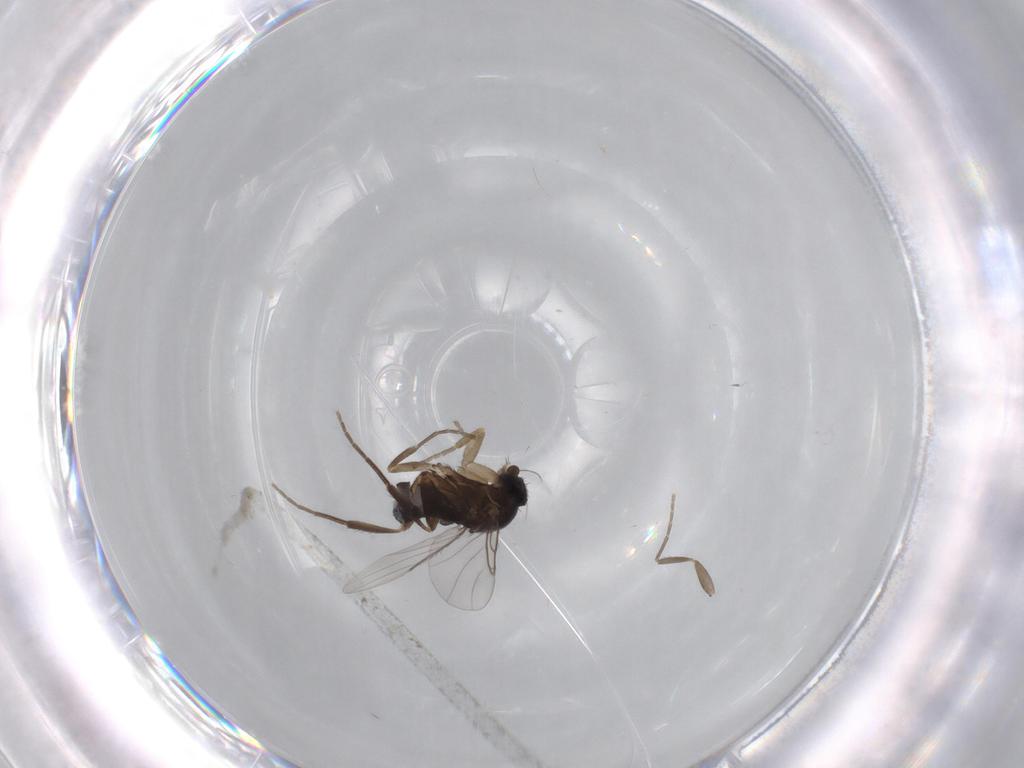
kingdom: Animalia
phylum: Arthropoda
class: Insecta
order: Diptera
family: Phoridae
